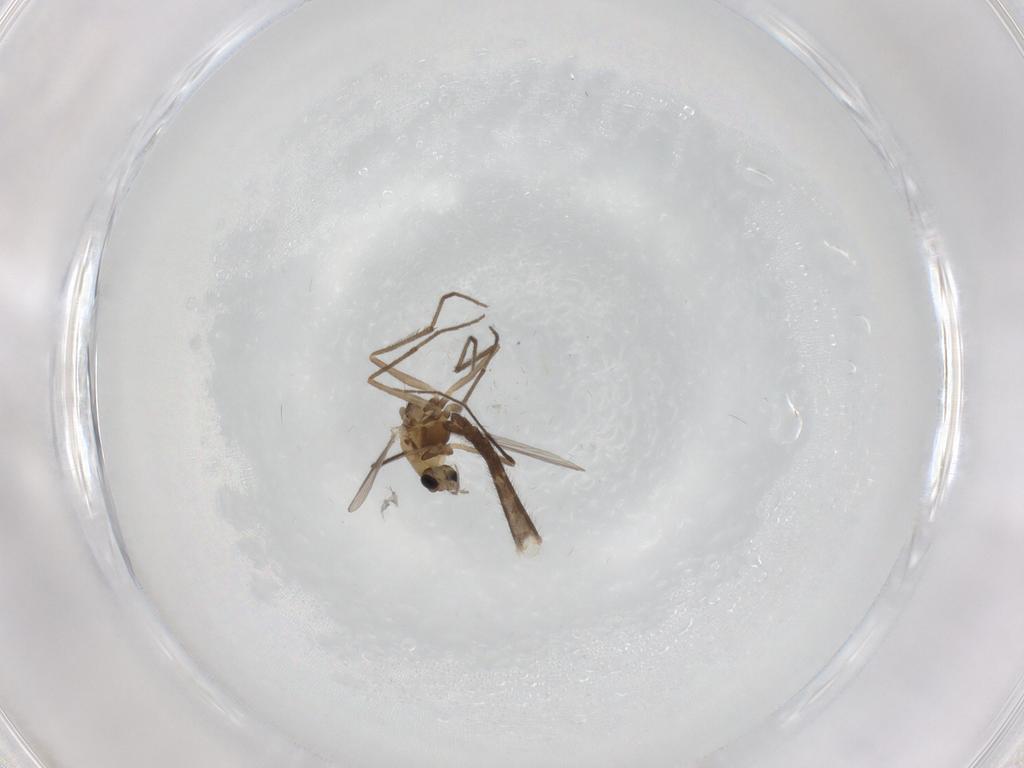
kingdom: Animalia
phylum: Arthropoda
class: Insecta
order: Diptera
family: Chironomidae
